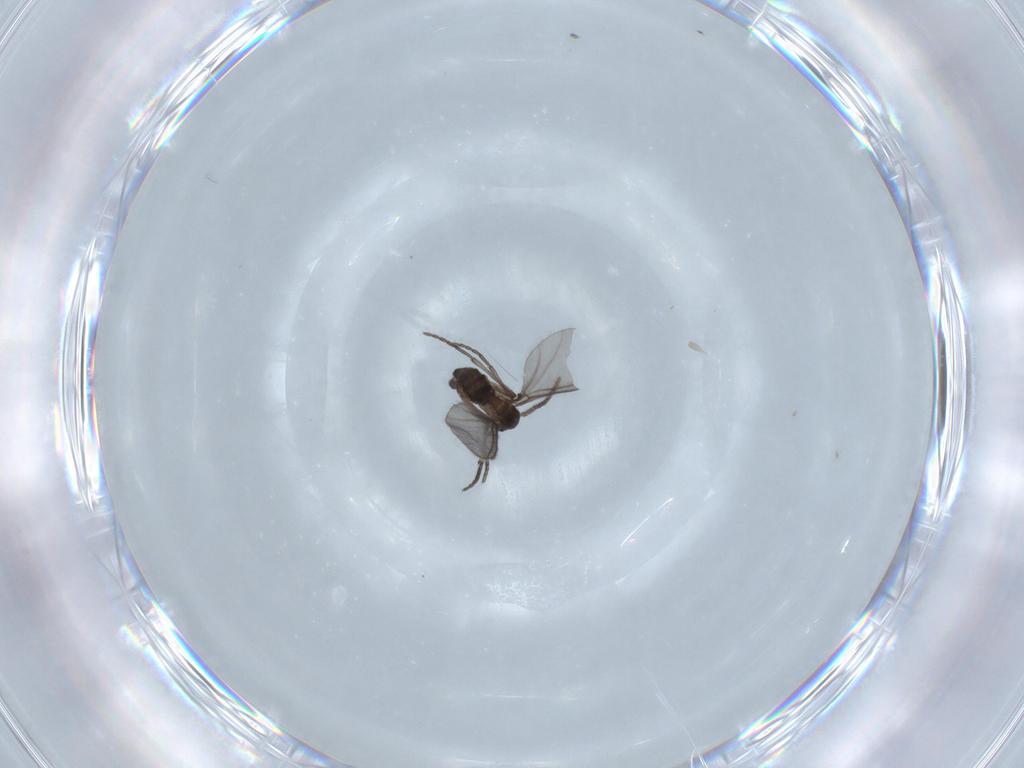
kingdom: Animalia
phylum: Arthropoda
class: Insecta
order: Diptera
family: Sciaridae
